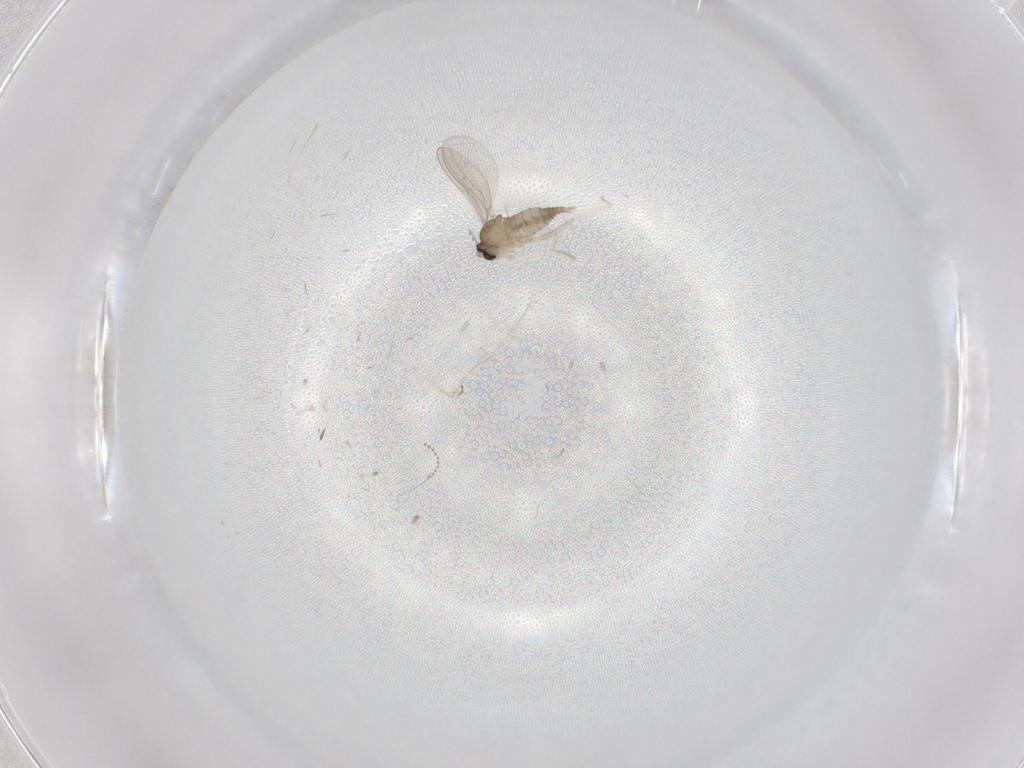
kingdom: Animalia
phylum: Arthropoda
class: Insecta
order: Diptera
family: Cecidomyiidae
